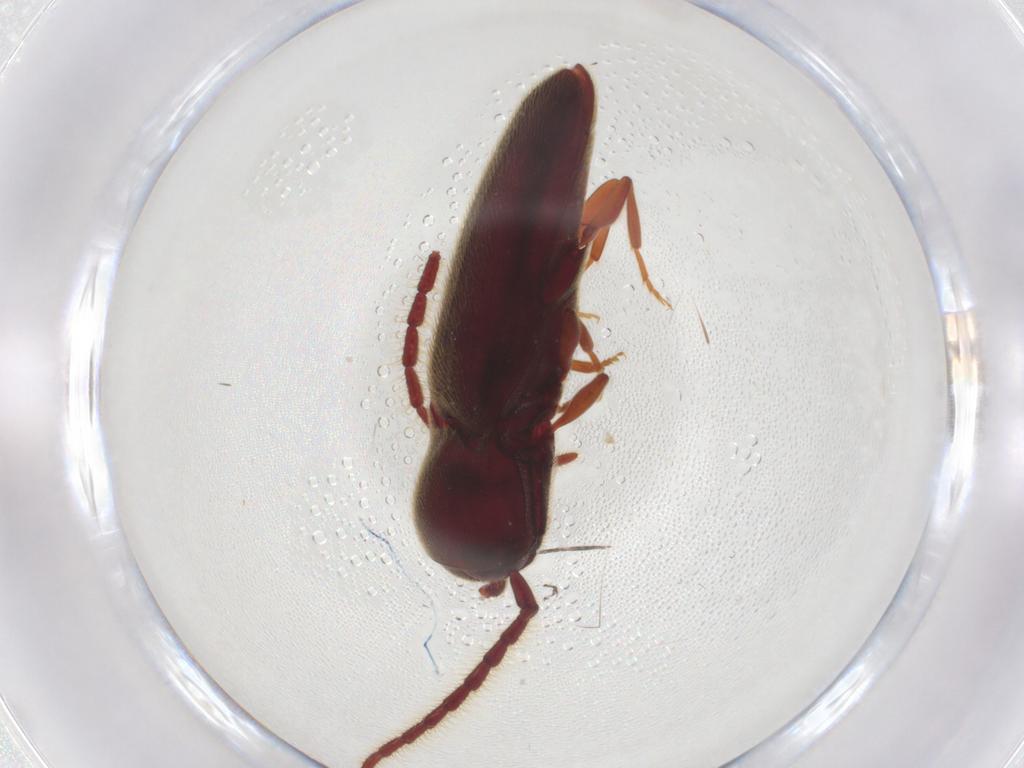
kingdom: Animalia
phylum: Arthropoda
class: Insecta
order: Coleoptera
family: Eucnemidae
